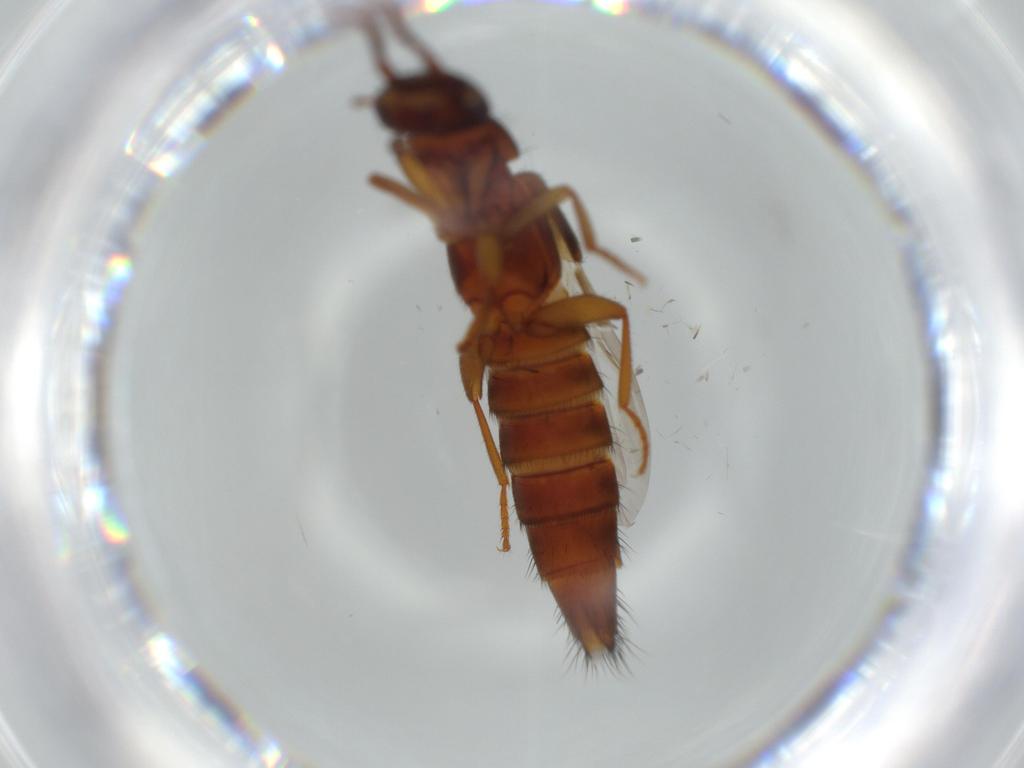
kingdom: Animalia
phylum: Arthropoda
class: Insecta
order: Coleoptera
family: Staphylinidae
